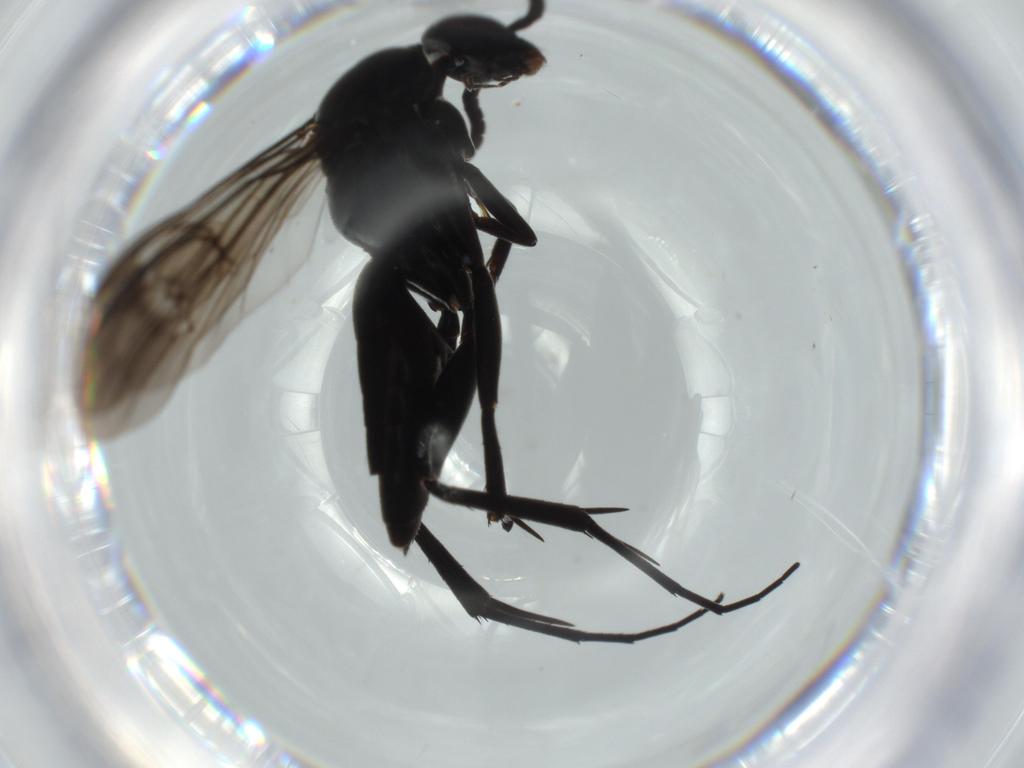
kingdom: Animalia
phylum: Arthropoda
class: Insecta
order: Hymenoptera
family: Pompilidae
